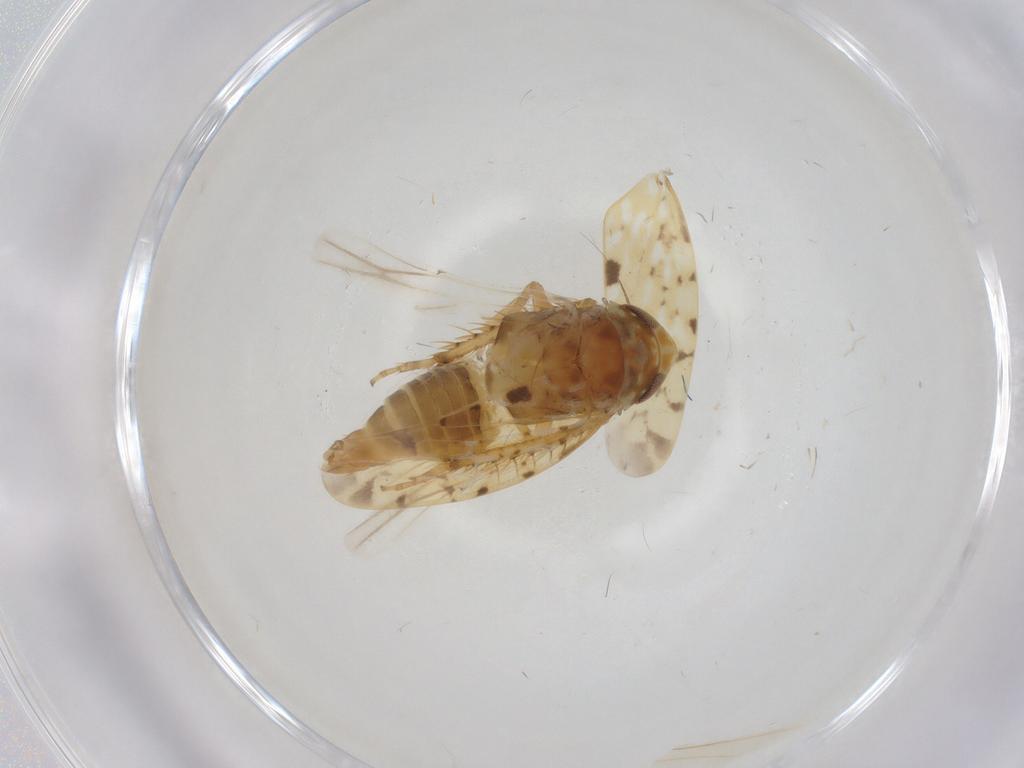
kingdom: Animalia
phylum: Arthropoda
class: Insecta
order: Hemiptera
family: Cicadellidae
